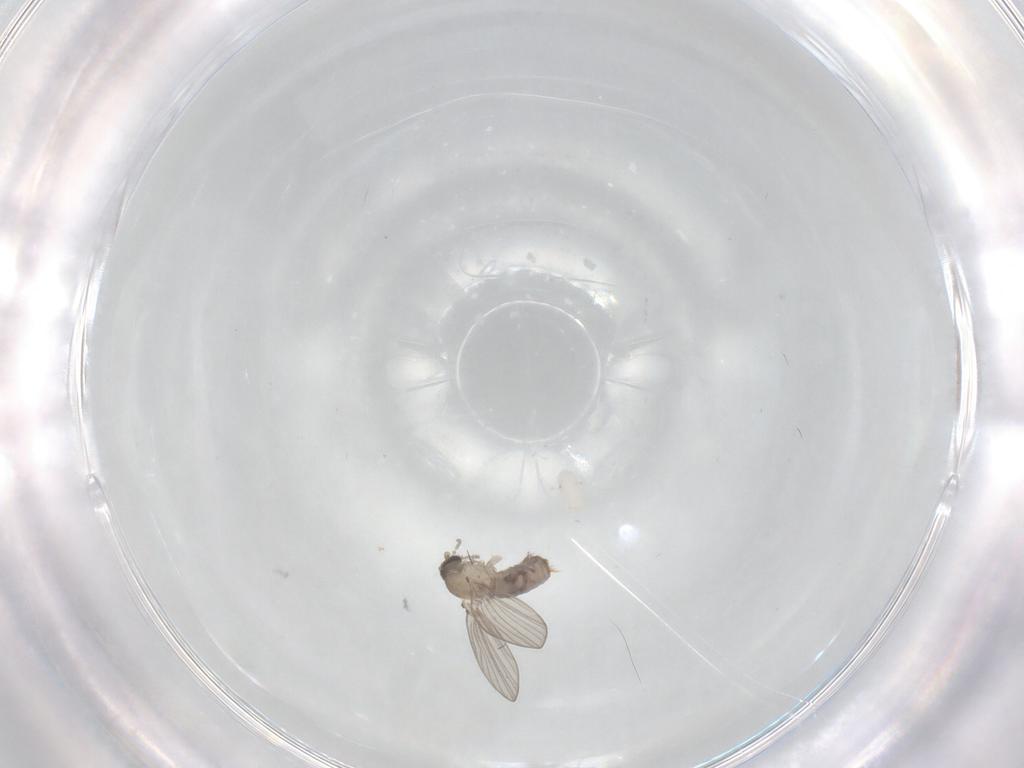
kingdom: Animalia
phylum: Arthropoda
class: Insecta
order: Diptera
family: Psychodidae
